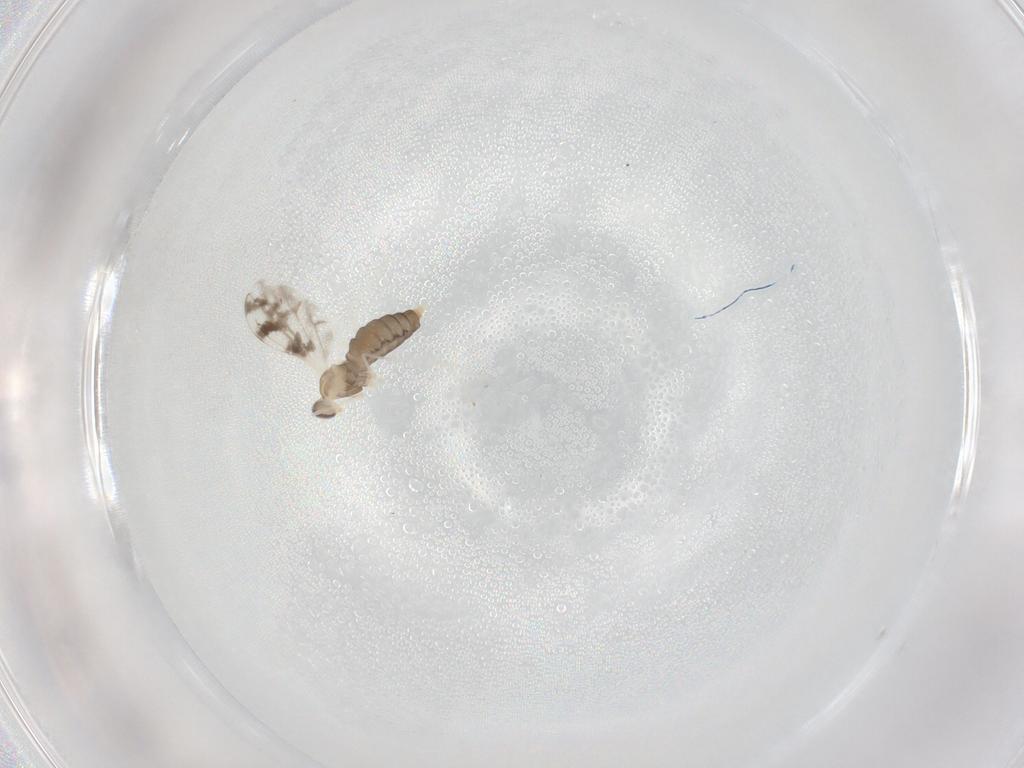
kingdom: Animalia
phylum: Arthropoda
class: Insecta
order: Diptera
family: Cecidomyiidae
